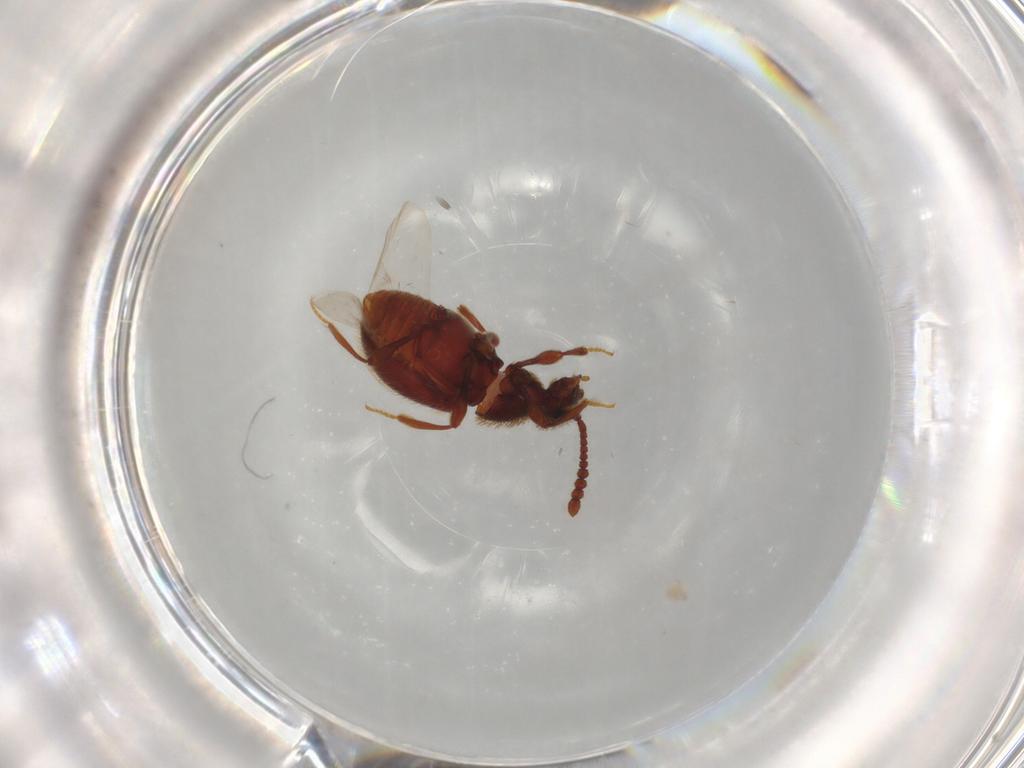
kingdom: Animalia
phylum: Arthropoda
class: Insecta
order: Coleoptera
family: Staphylinidae
